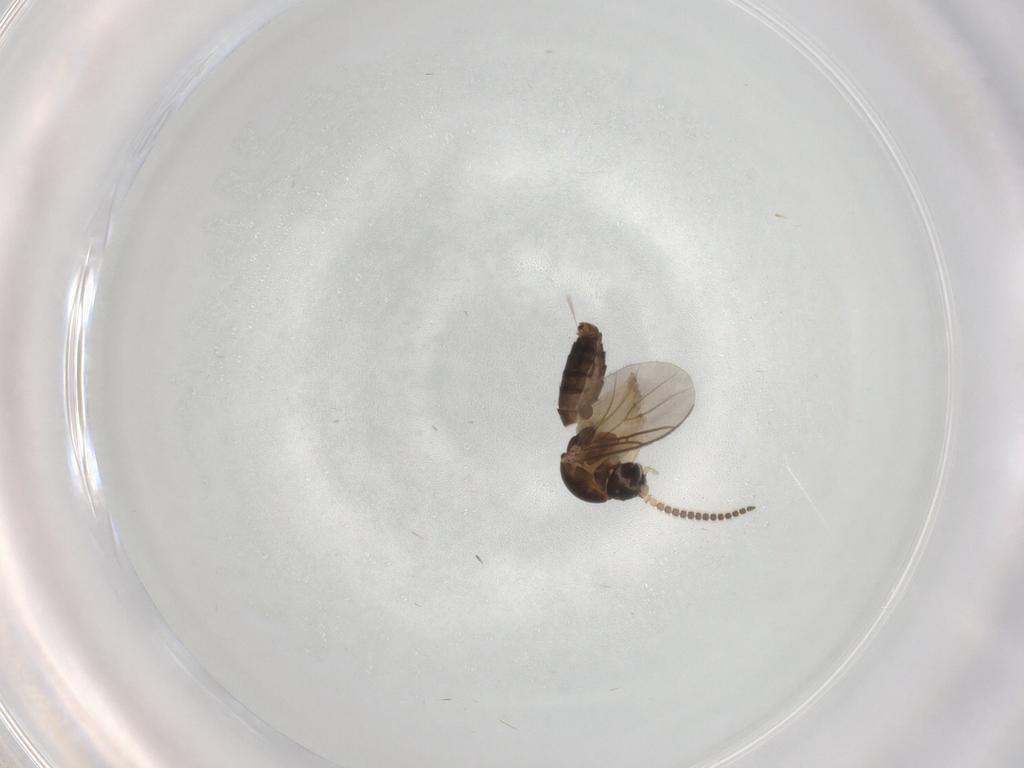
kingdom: Animalia
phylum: Arthropoda
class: Insecta
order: Diptera
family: Mycetophilidae
